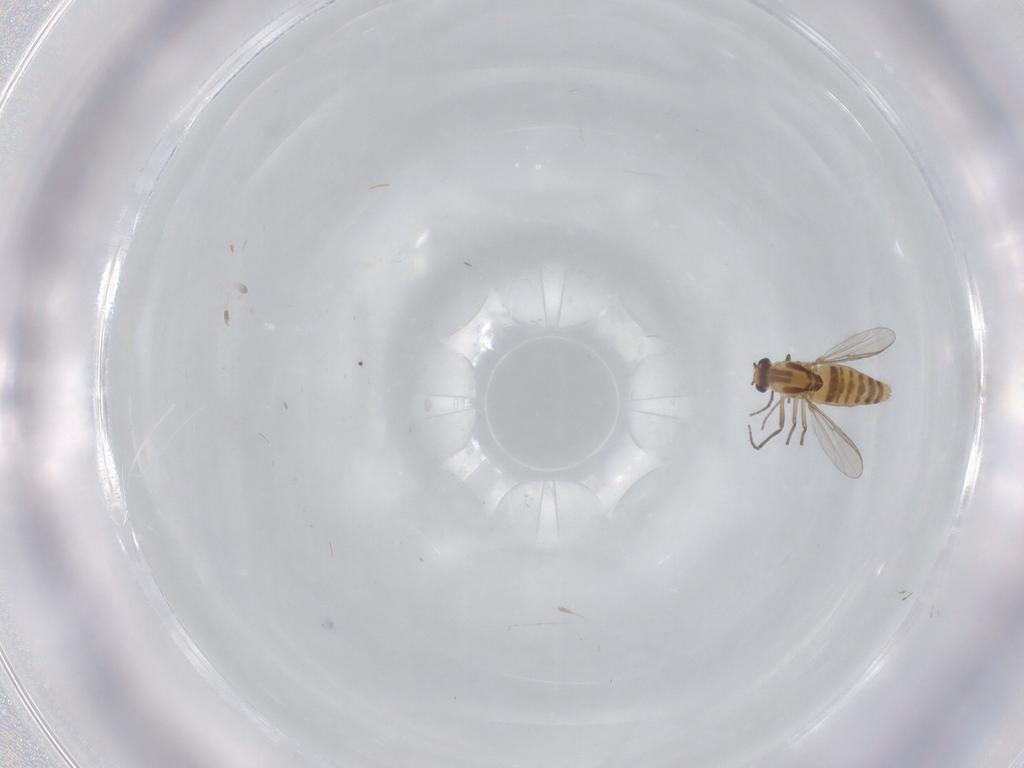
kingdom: Animalia
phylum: Arthropoda
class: Insecta
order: Diptera
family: Chironomidae
